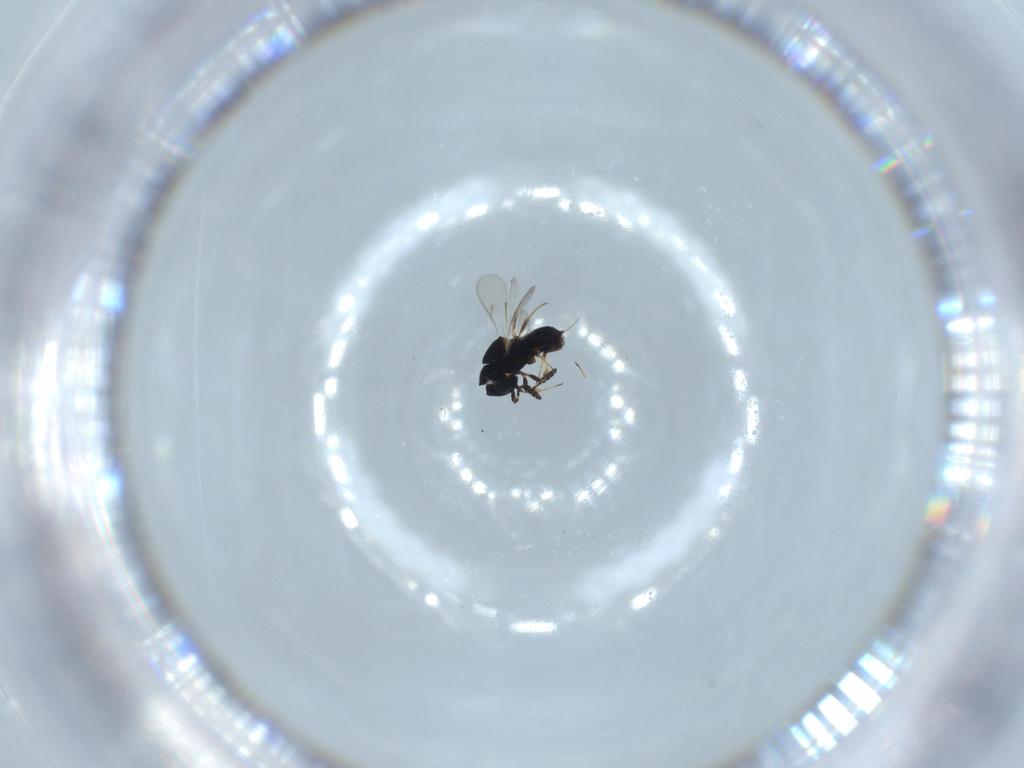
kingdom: Animalia
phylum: Arthropoda
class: Insecta
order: Hymenoptera
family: Scelionidae
